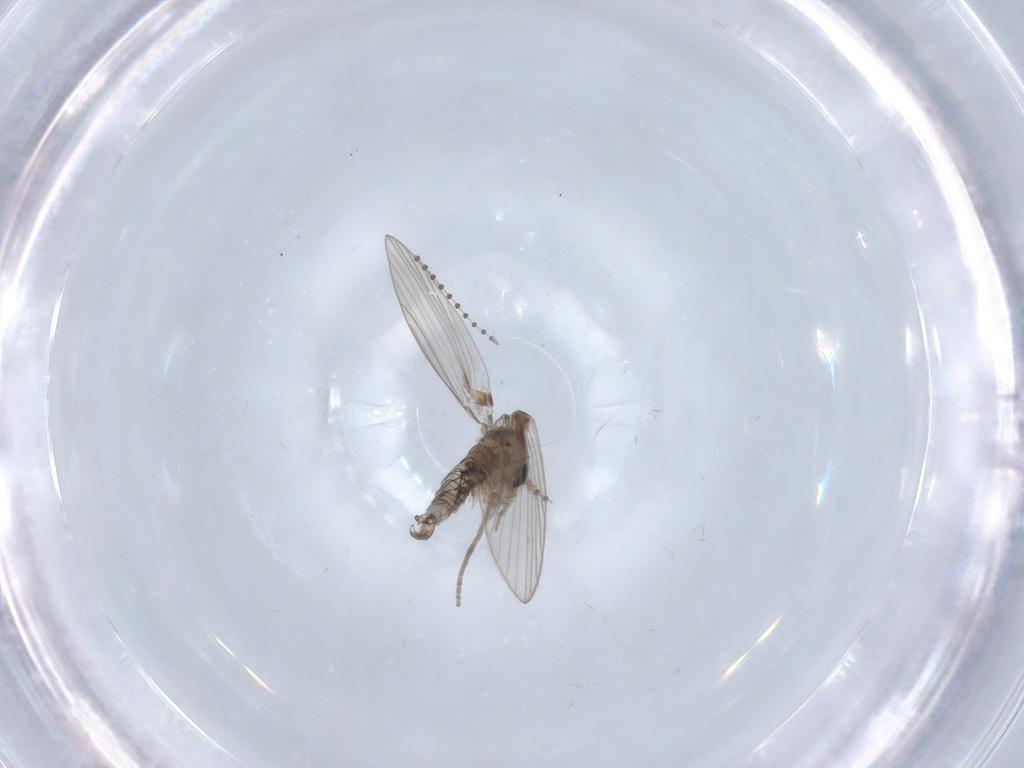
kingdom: Animalia
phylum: Arthropoda
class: Insecta
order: Diptera
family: Psychodidae
